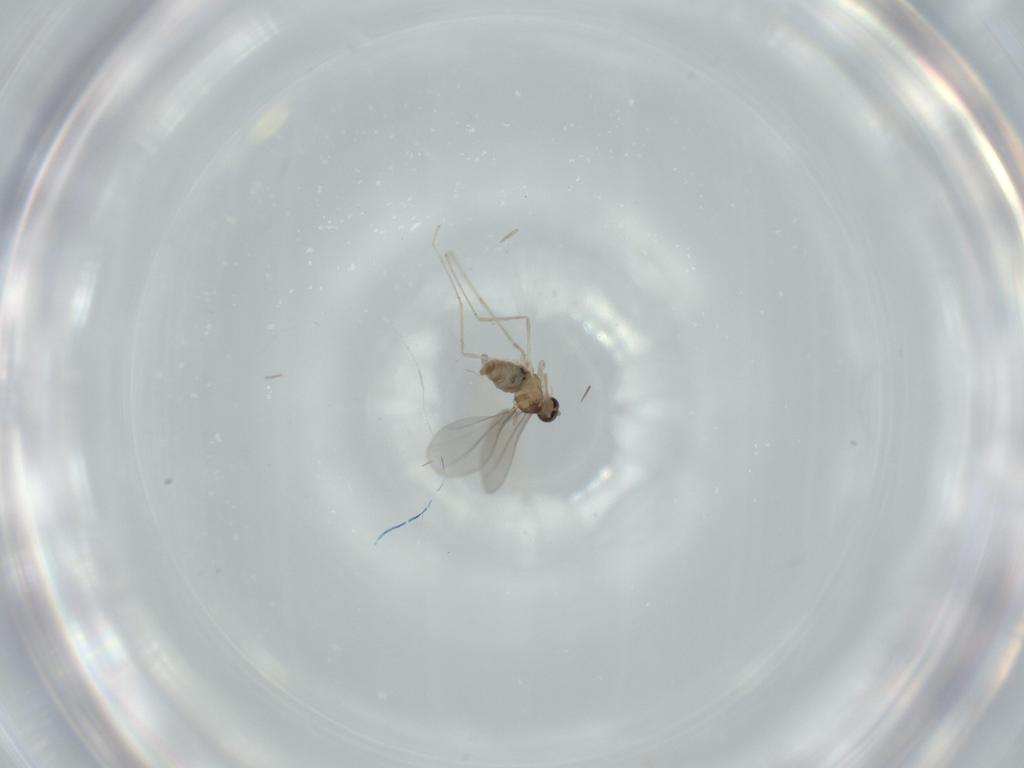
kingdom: Animalia
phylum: Arthropoda
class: Insecta
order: Diptera
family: Cecidomyiidae
